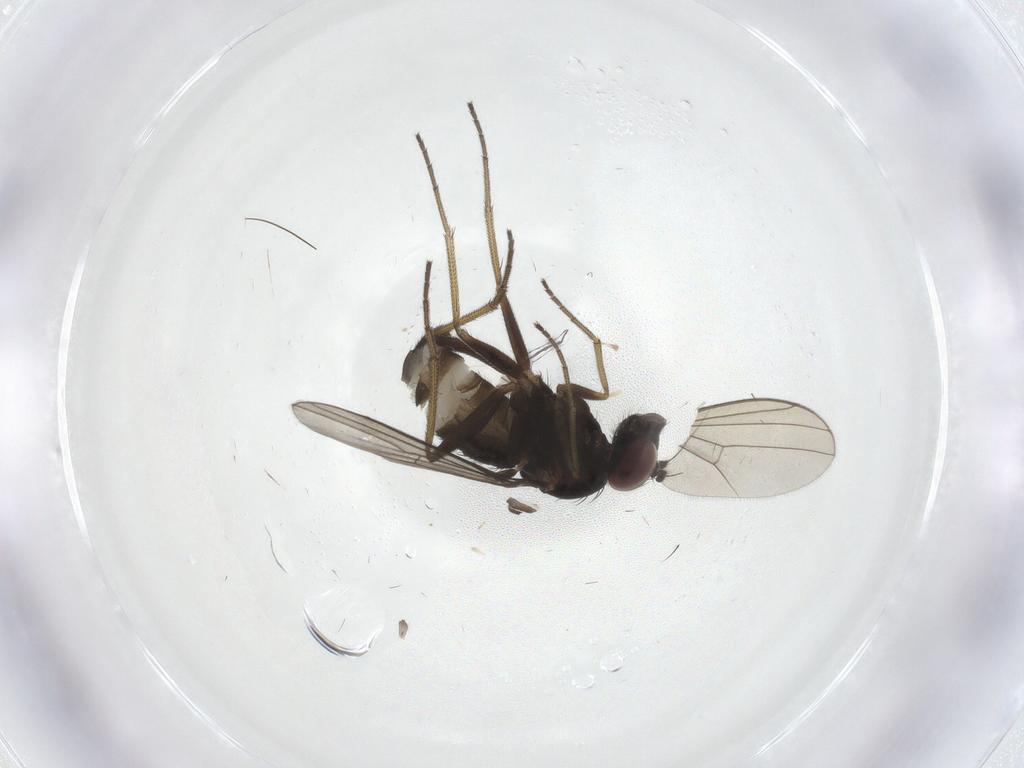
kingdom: Animalia
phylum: Arthropoda
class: Insecta
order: Diptera
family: Dolichopodidae
